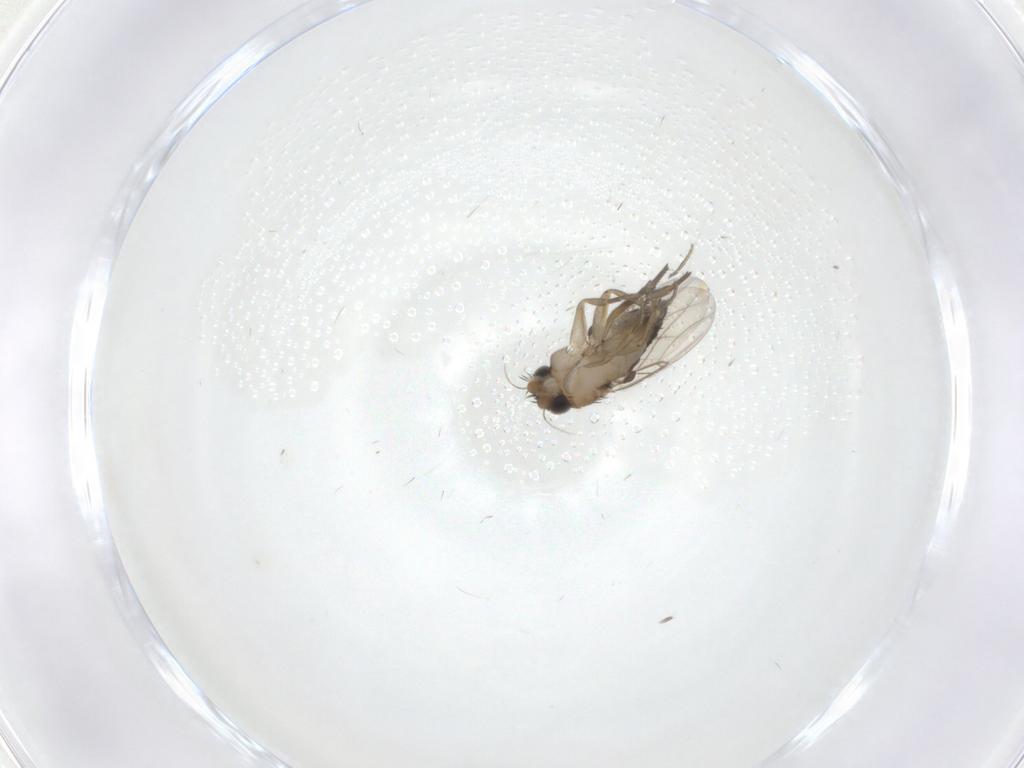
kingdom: Animalia
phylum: Arthropoda
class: Insecta
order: Diptera
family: Phoridae
